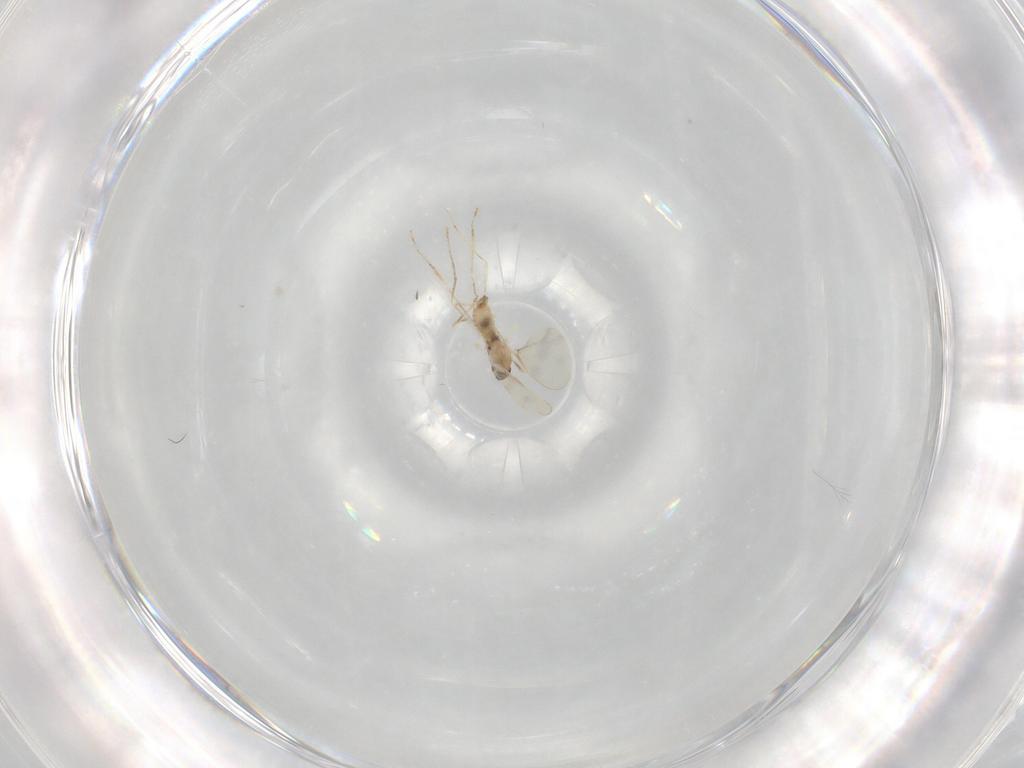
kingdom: Animalia
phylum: Arthropoda
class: Insecta
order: Diptera
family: Cecidomyiidae
